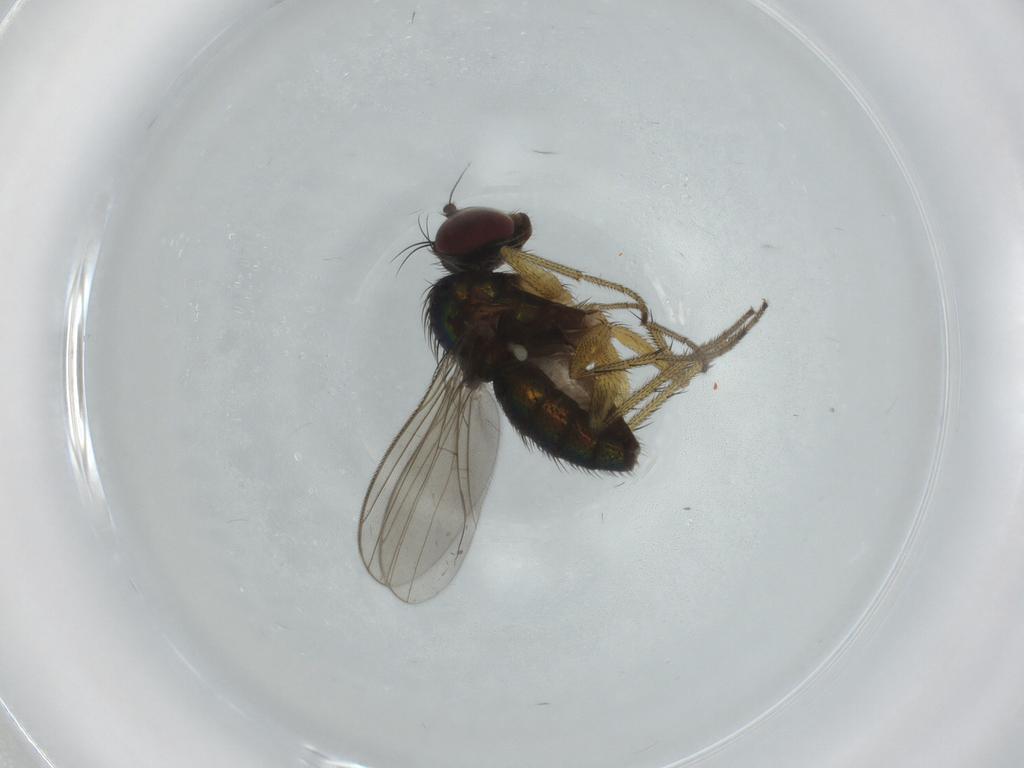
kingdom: Animalia
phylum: Arthropoda
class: Insecta
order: Diptera
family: Dolichopodidae
